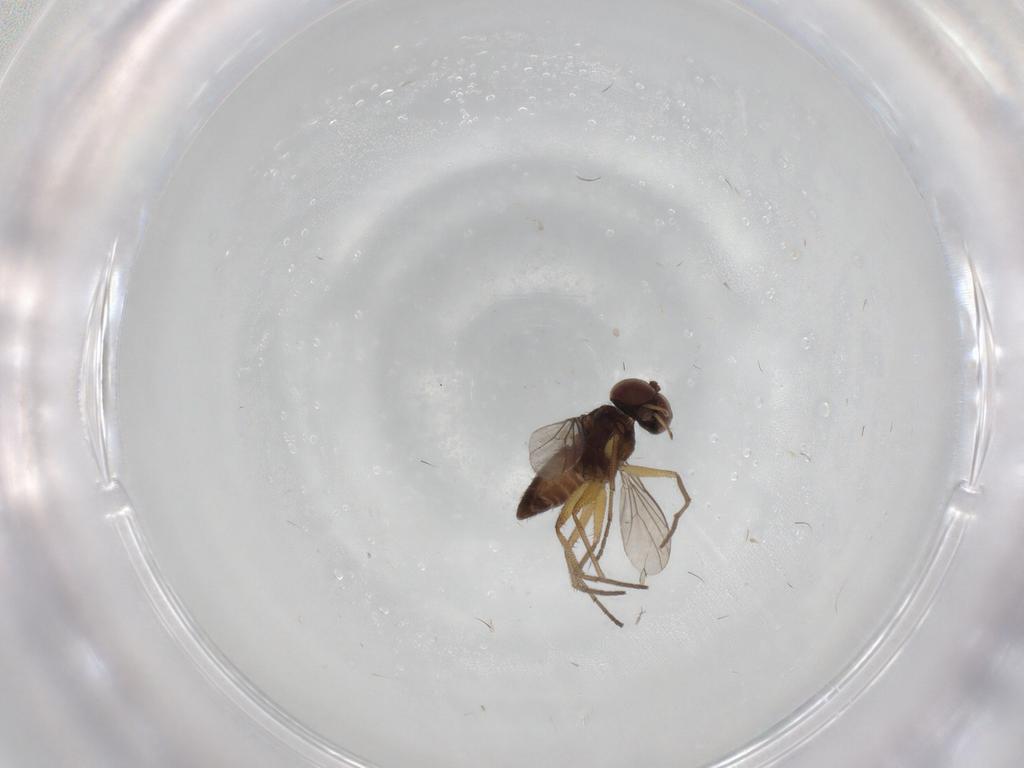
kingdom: Animalia
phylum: Arthropoda
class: Insecta
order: Diptera
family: Dolichopodidae
